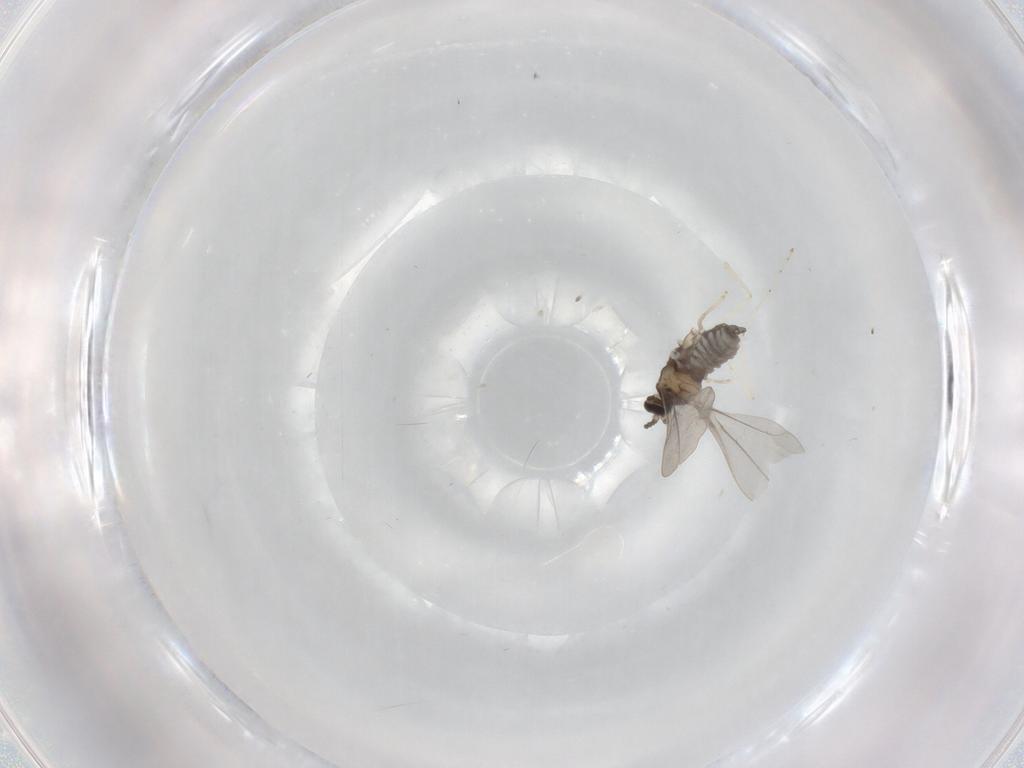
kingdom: Animalia
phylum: Arthropoda
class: Insecta
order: Diptera
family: Cecidomyiidae
